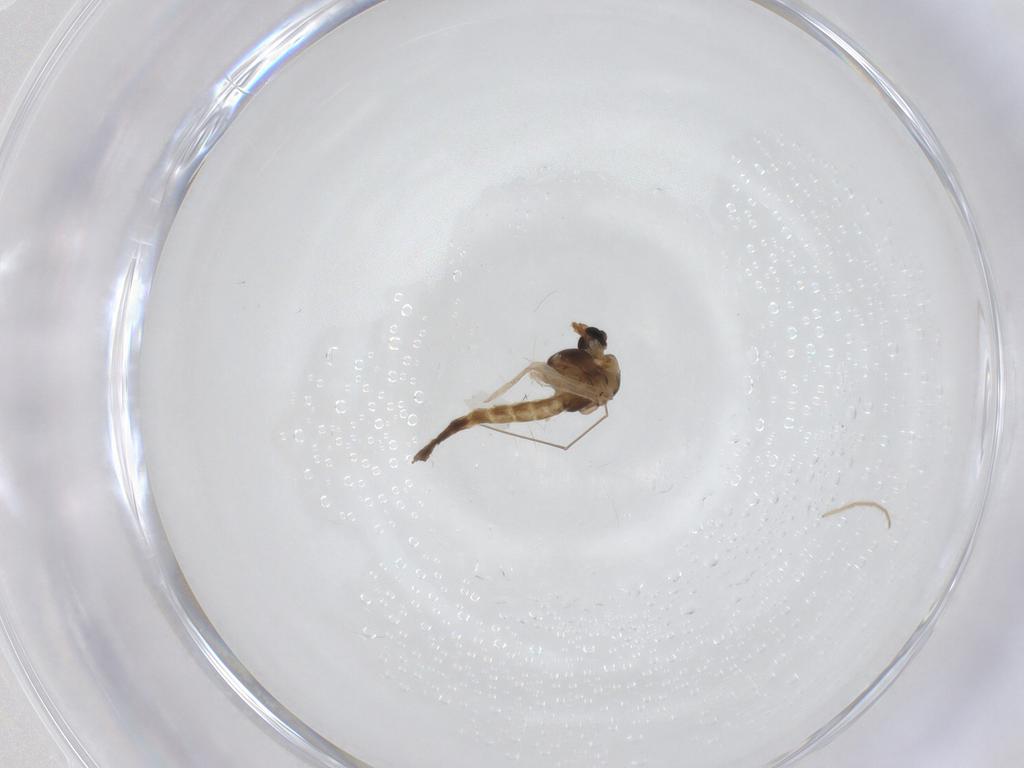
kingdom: Animalia
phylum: Arthropoda
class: Insecta
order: Diptera
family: Chironomidae
